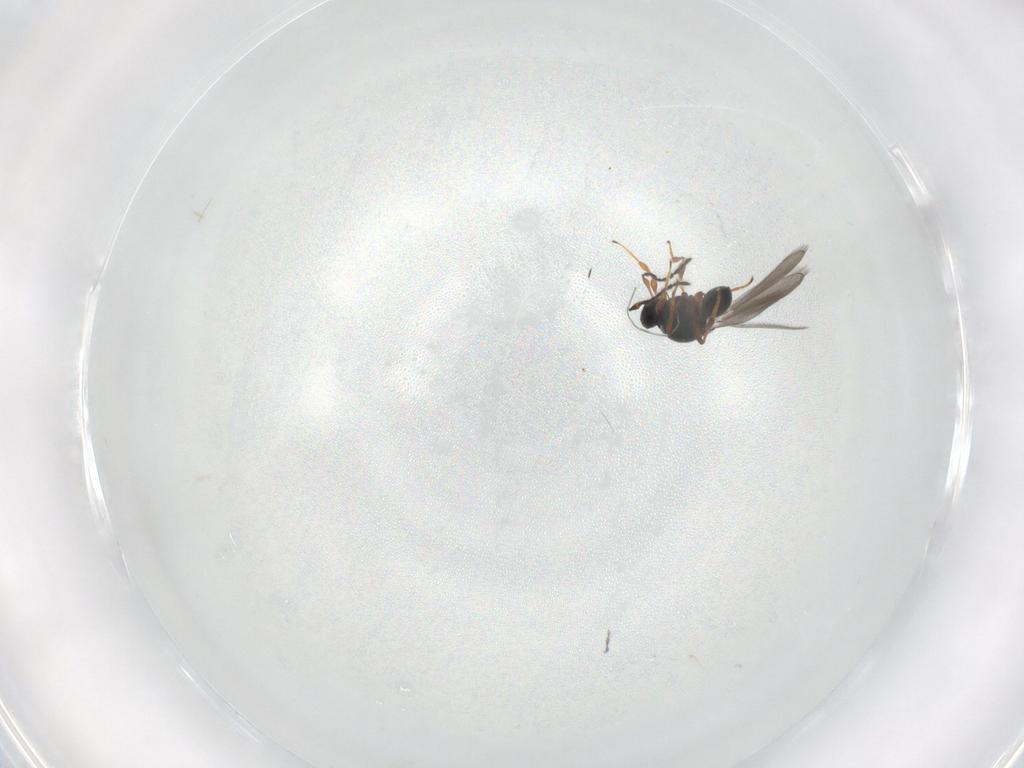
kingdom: Animalia
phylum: Arthropoda
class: Insecta
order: Hymenoptera
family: Platygastridae
